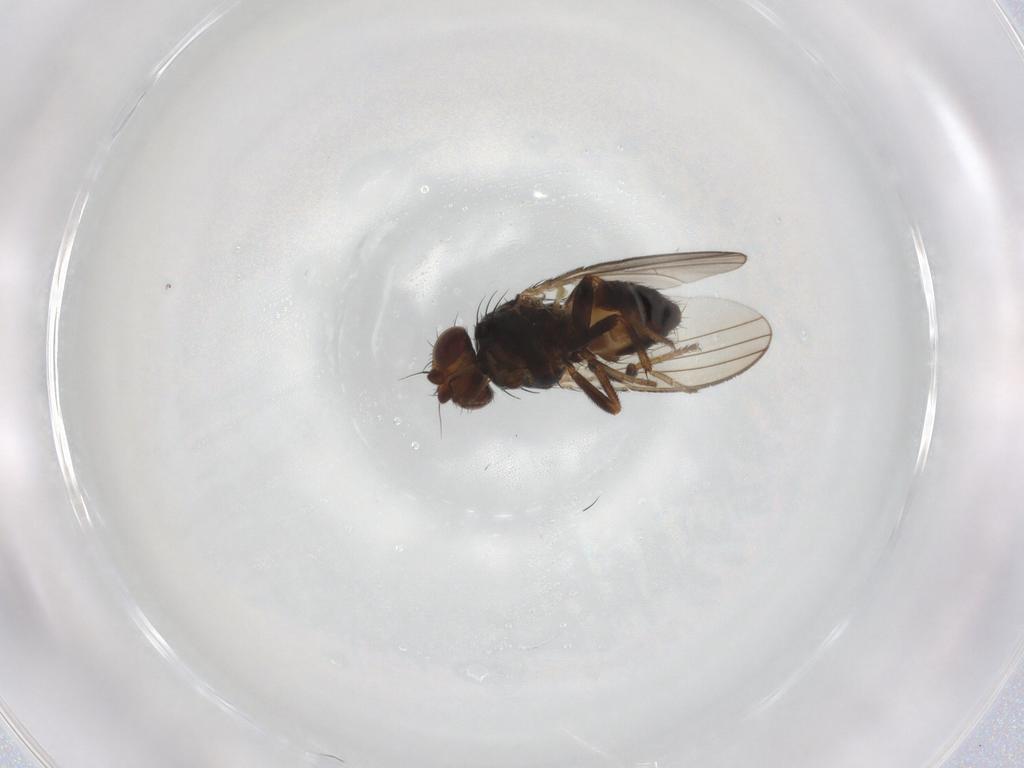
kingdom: Animalia
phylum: Arthropoda
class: Insecta
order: Diptera
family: Milichiidae
